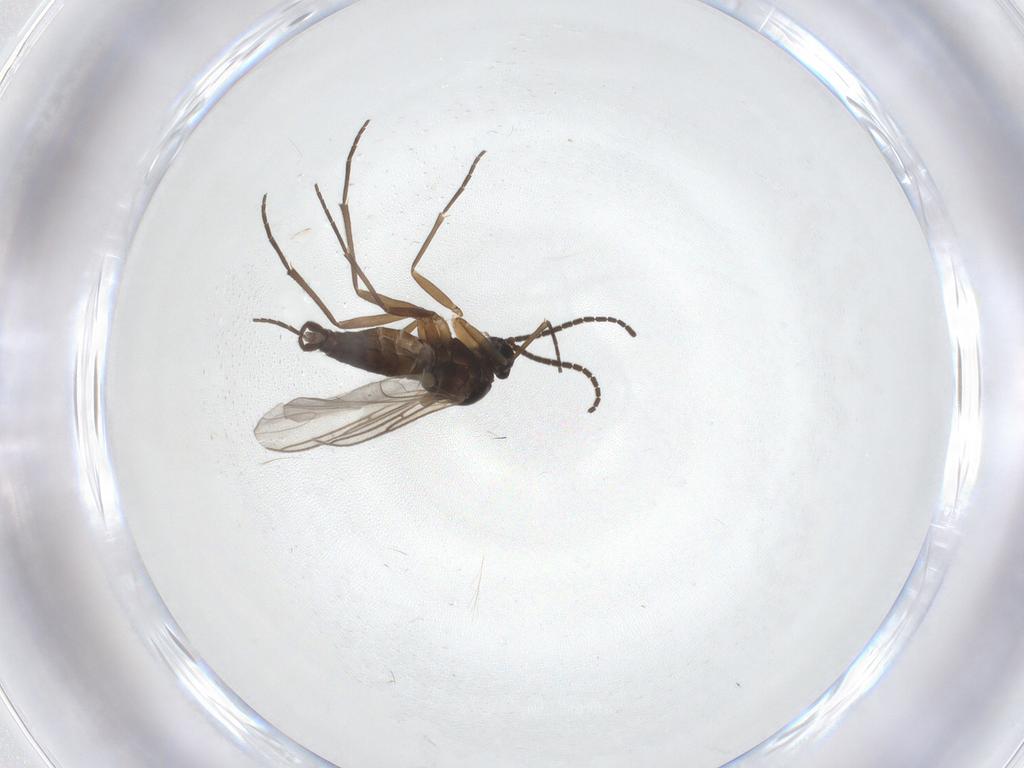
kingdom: Animalia
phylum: Arthropoda
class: Insecta
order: Diptera
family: Sciaridae
